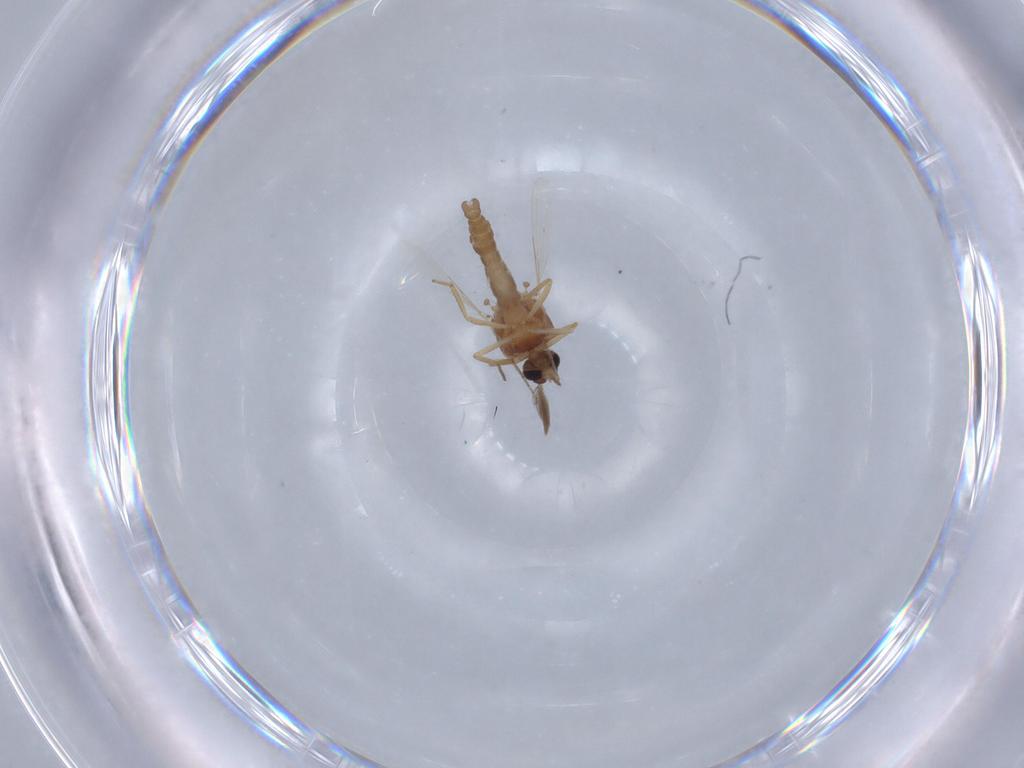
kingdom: Animalia
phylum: Arthropoda
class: Insecta
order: Diptera
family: Ceratopogonidae
